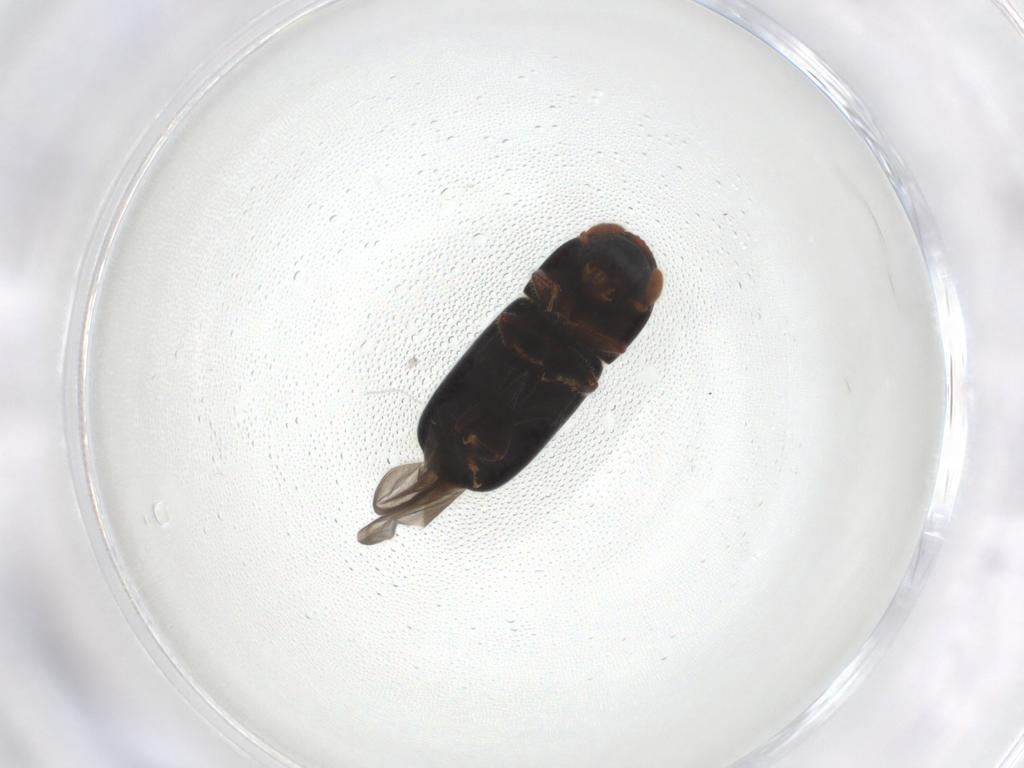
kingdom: Animalia
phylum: Arthropoda
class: Insecta
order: Coleoptera
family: Curculionidae
